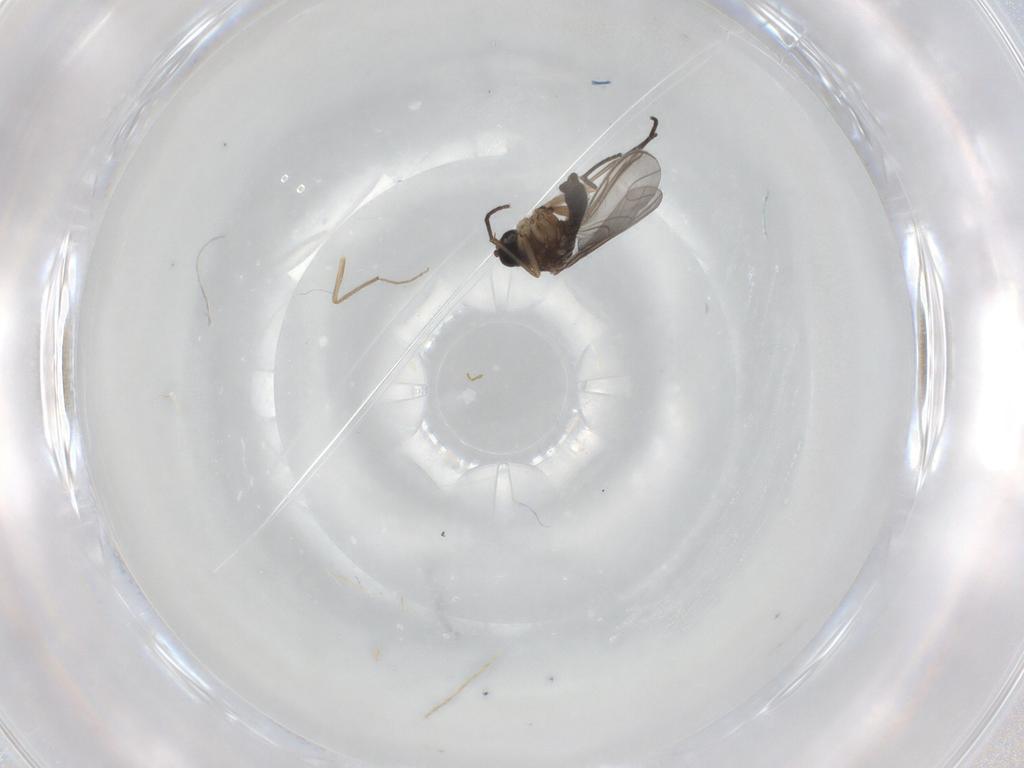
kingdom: Animalia
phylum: Arthropoda
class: Insecta
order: Diptera
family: Sciaridae
